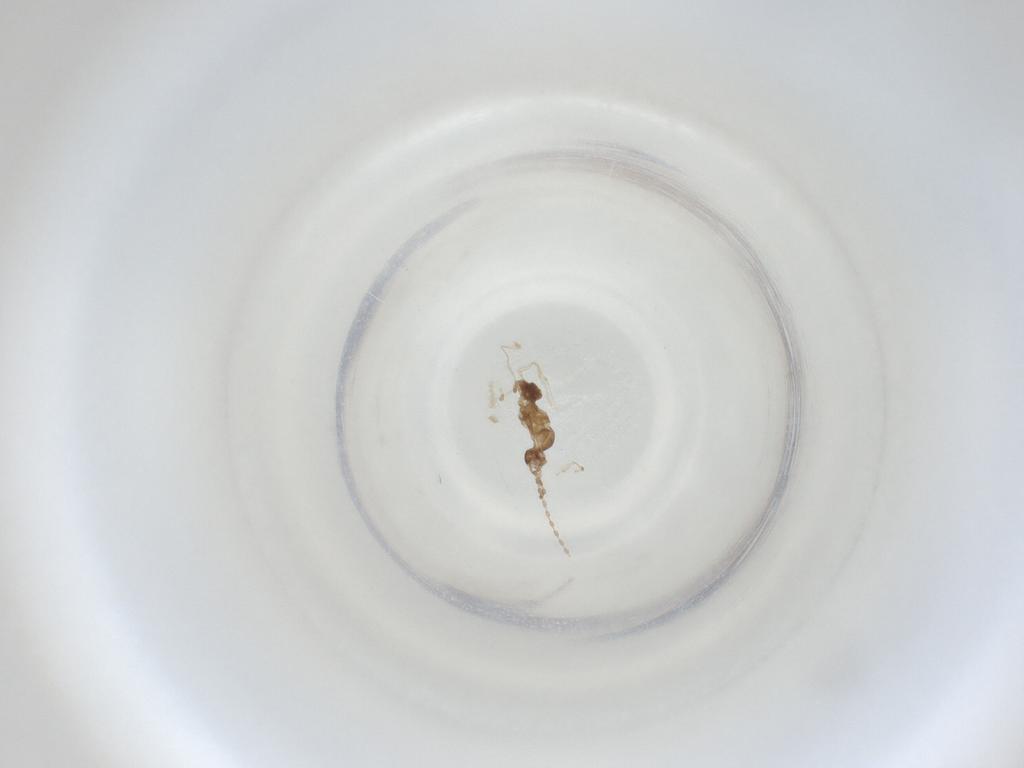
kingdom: Animalia
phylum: Arthropoda
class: Insecta
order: Diptera
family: Cecidomyiidae
